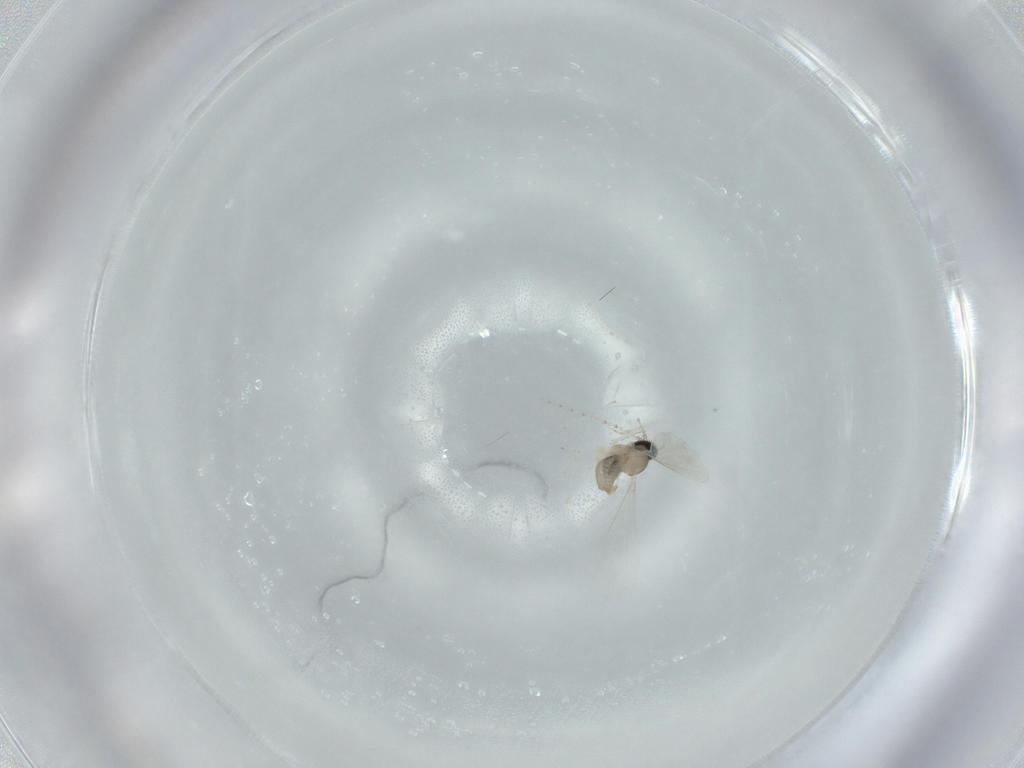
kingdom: Animalia
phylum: Arthropoda
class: Insecta
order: Diptera
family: Cecidomyiidae
